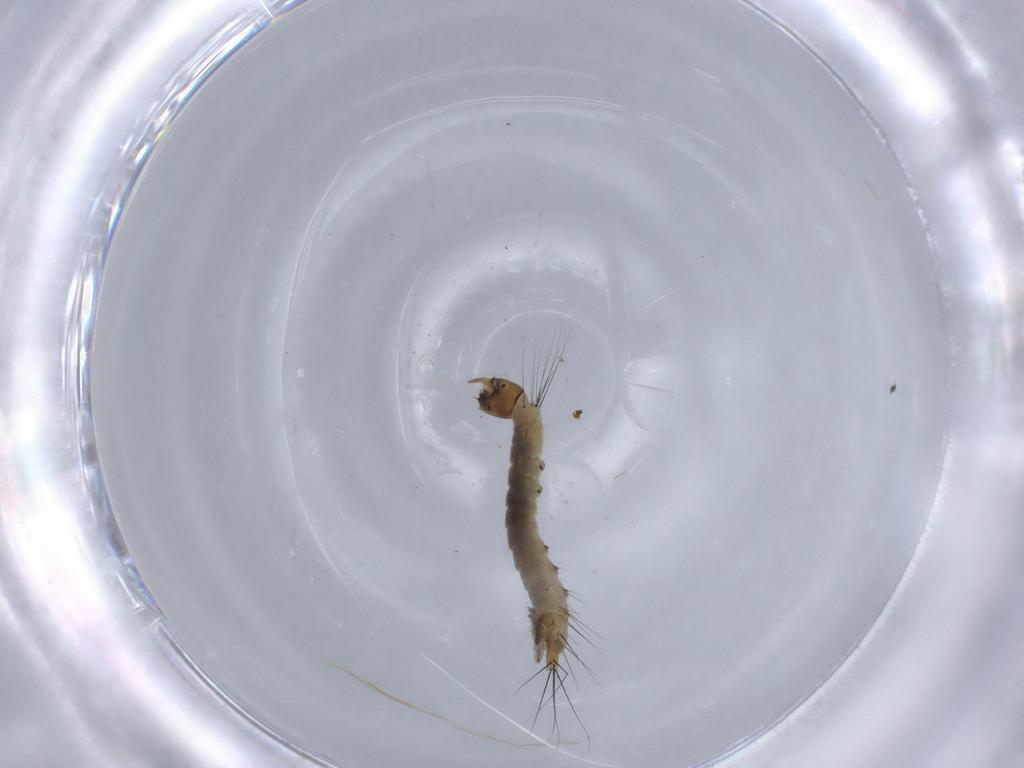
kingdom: Animalia
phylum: Arthropoda
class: Insecta
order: Diptera
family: Dixidae
